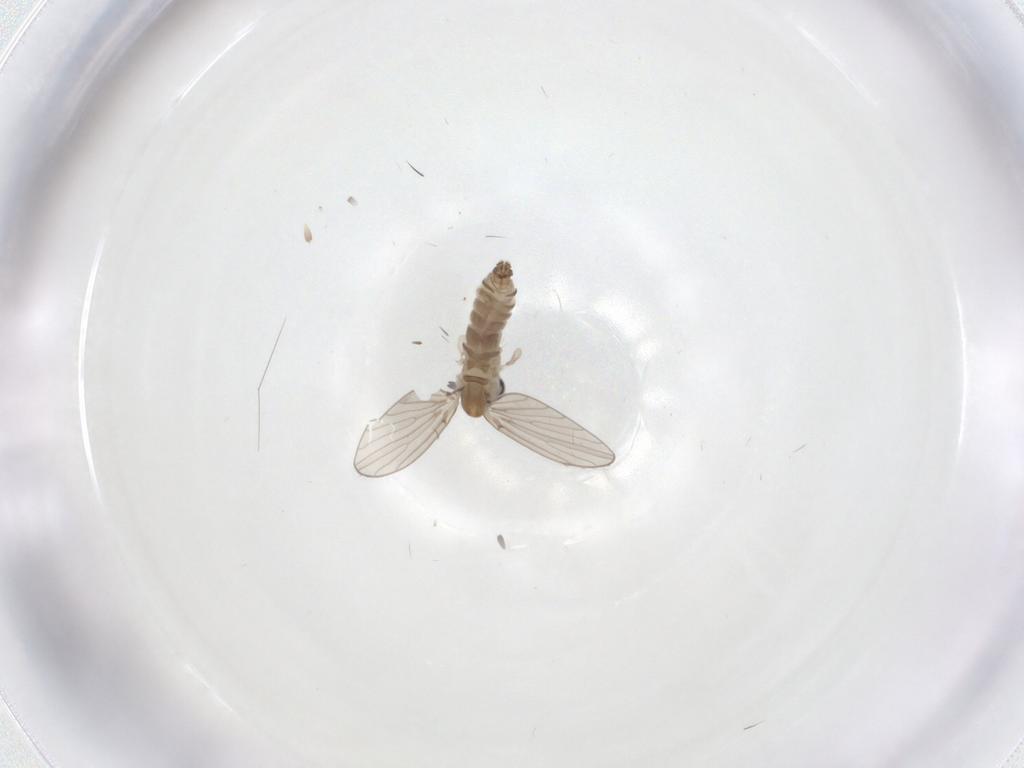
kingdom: Animalia
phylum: Arthropoda
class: Insecta
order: Diptera
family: Psychodidae
